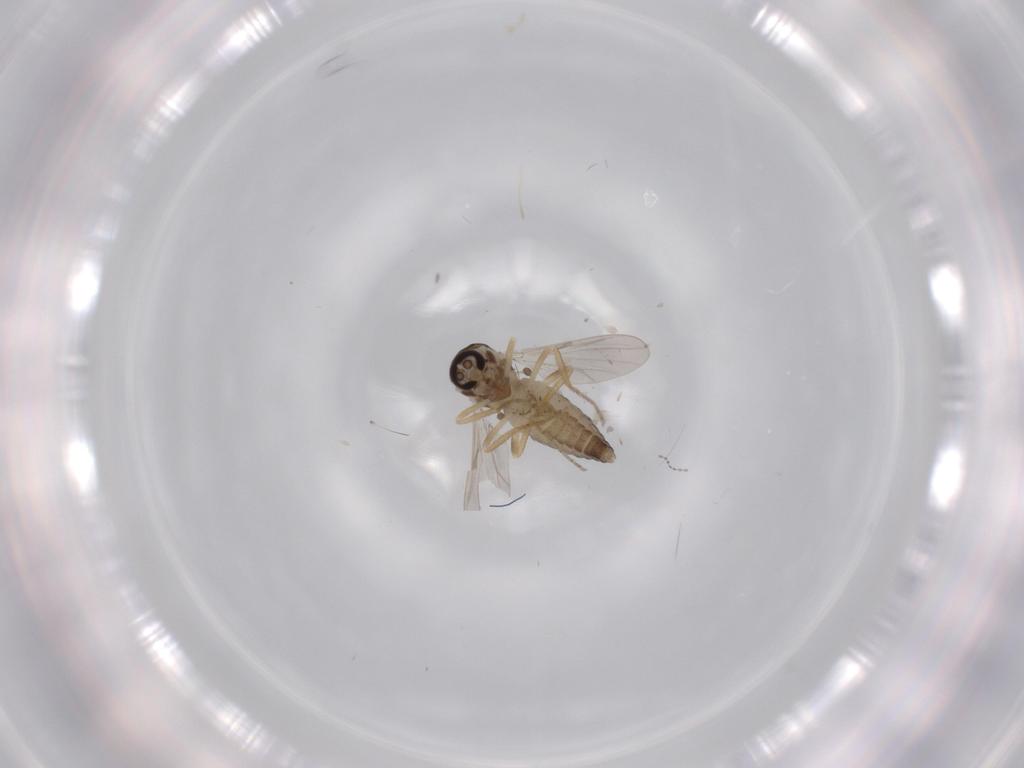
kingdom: Animalia
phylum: Arthropoda
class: Insecta
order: Diptera
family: Ceratopogonidae
